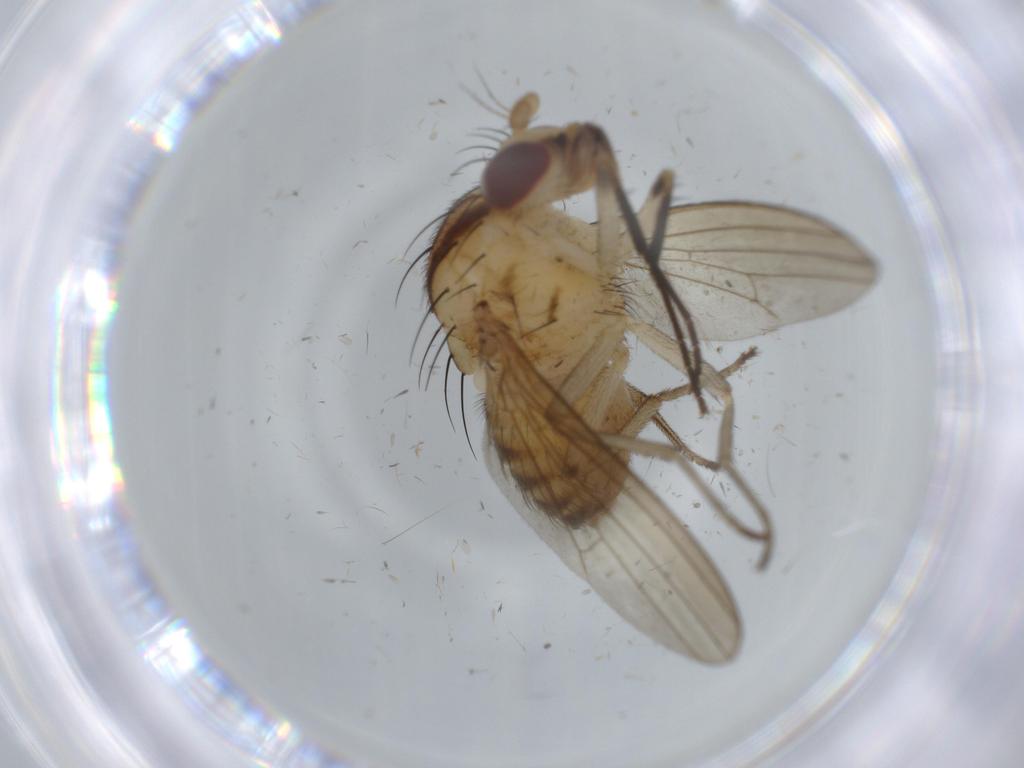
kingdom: Animalia
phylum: Arthropoda
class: Insecta
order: Diptera
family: Lauxaniidae
